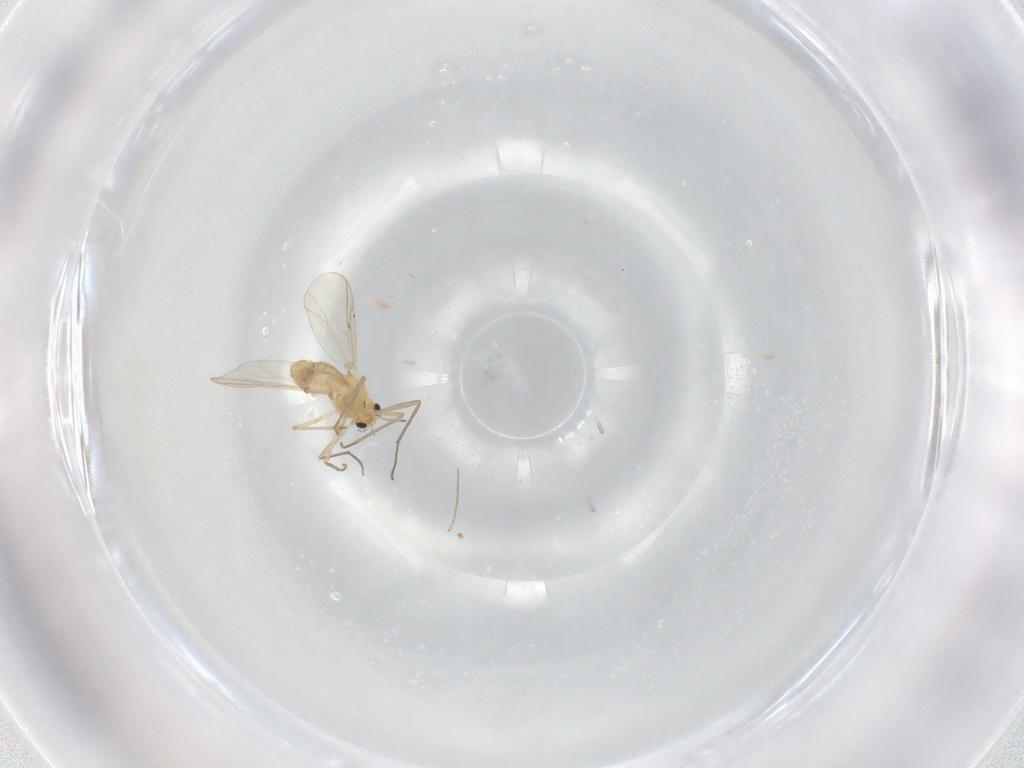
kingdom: Animalia
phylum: Arthropoda
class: Insecta
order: Diptera
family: Chironomidae
